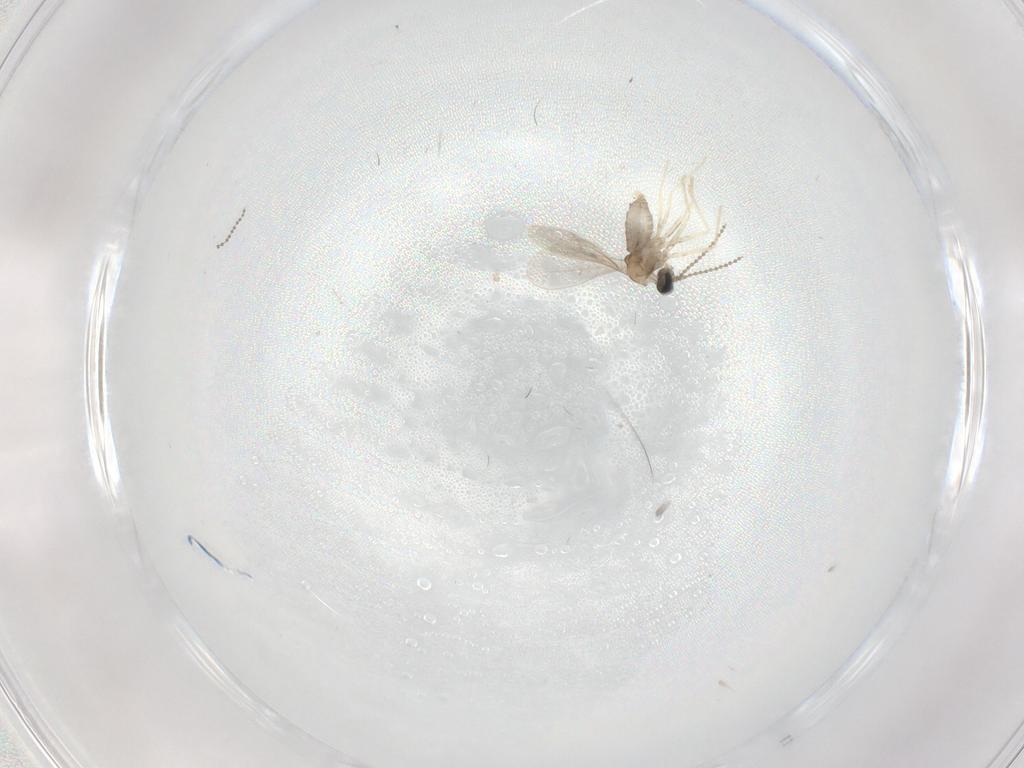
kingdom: Animalia
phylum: Arthropoda
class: Insecta
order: Diptera
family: Cecidomyiidae
